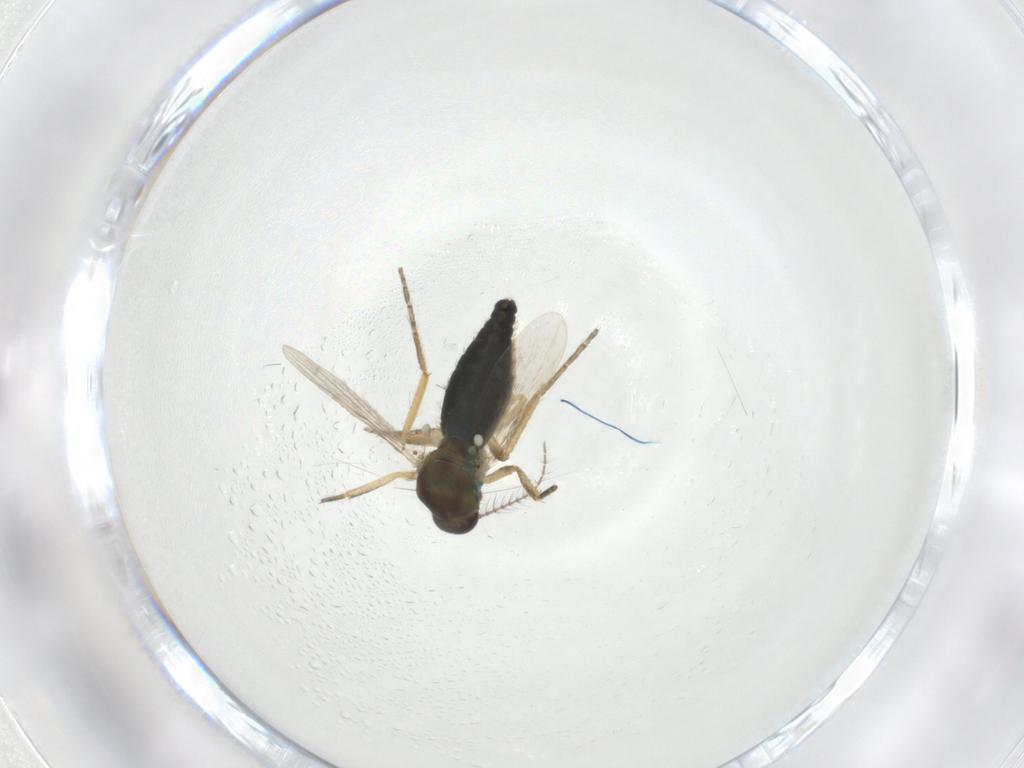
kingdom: Animalia
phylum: Arthropoda
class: Insecta
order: Diptera
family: Ceratopogonidae
